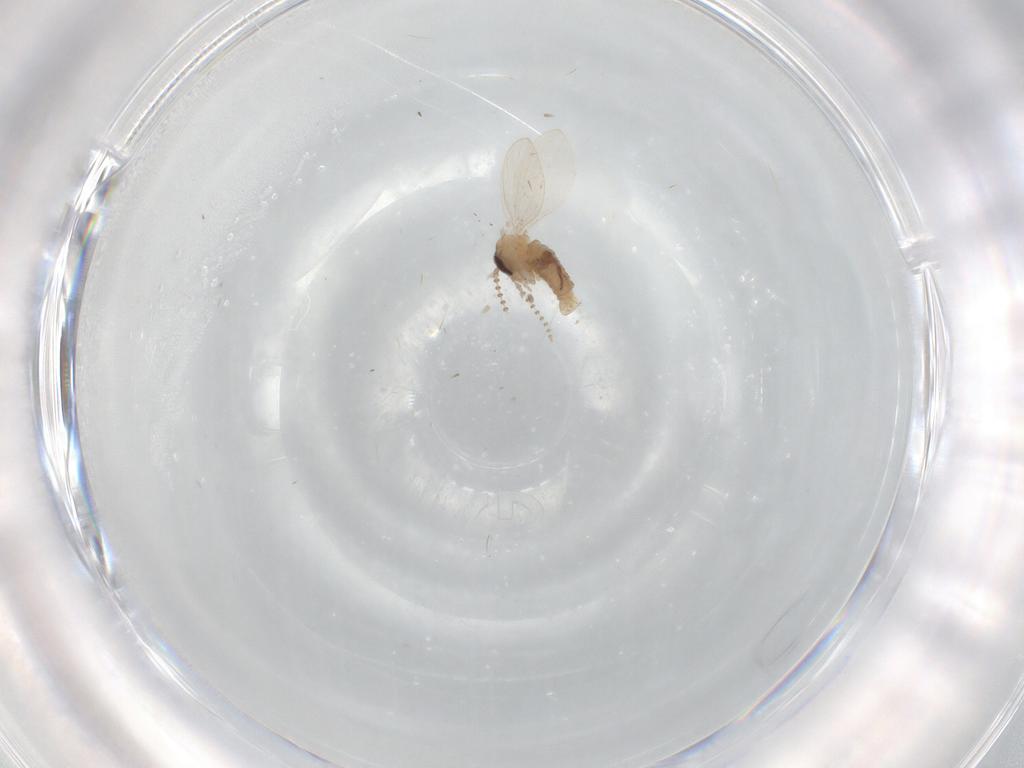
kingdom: Animalia
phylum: Arthropoda
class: Insecta
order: Diptera
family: Psychodidae
